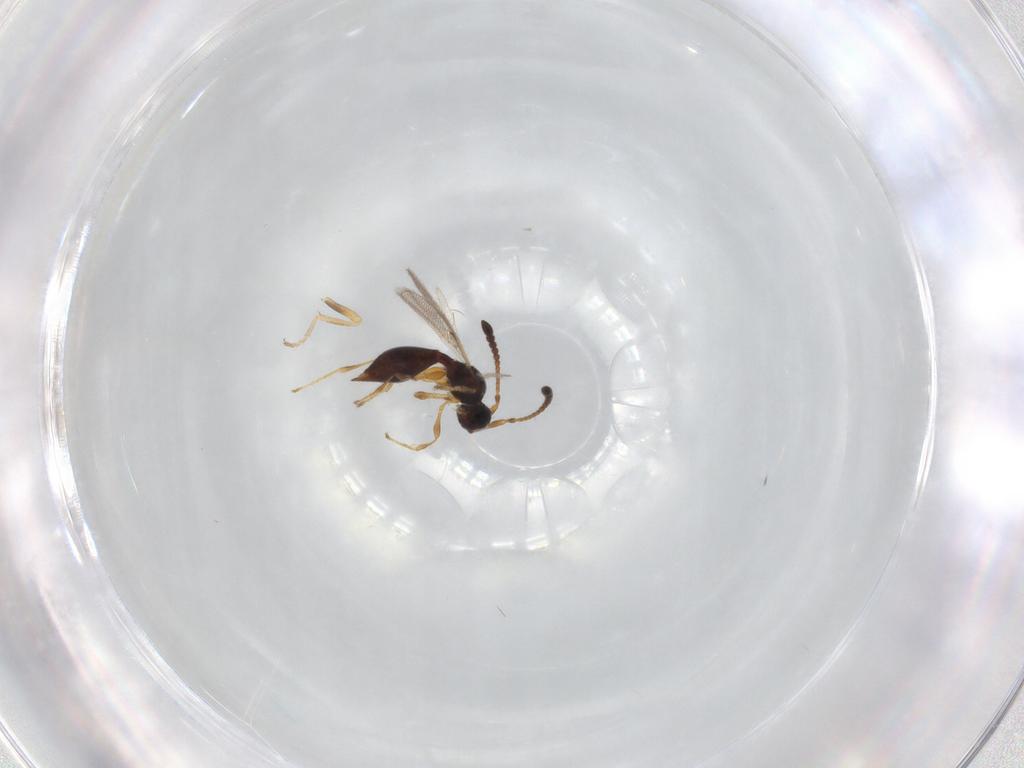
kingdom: Animalia
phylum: Arthropoda
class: Insecta
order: Hymenoptera
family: Diapriidae
